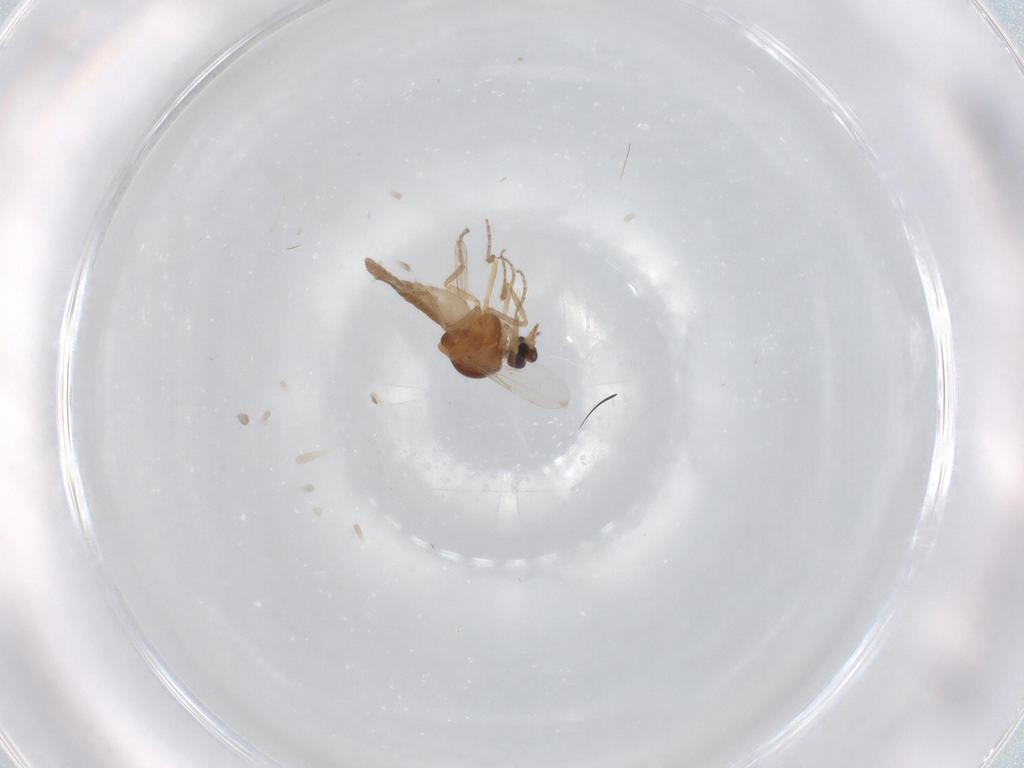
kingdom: Animalia
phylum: Arthropoda
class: Insecta
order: Diptera
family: Ceratopogonidae
